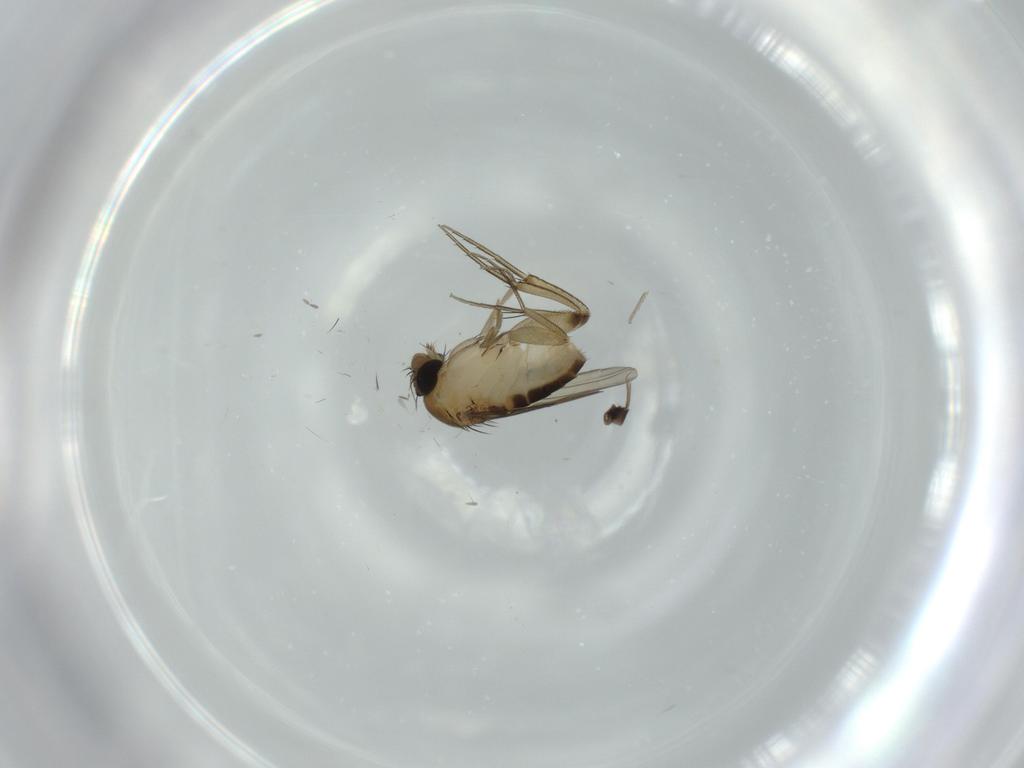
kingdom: Animalia
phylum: Arthropoda
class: Insecta
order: Diptera
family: Phoridae
